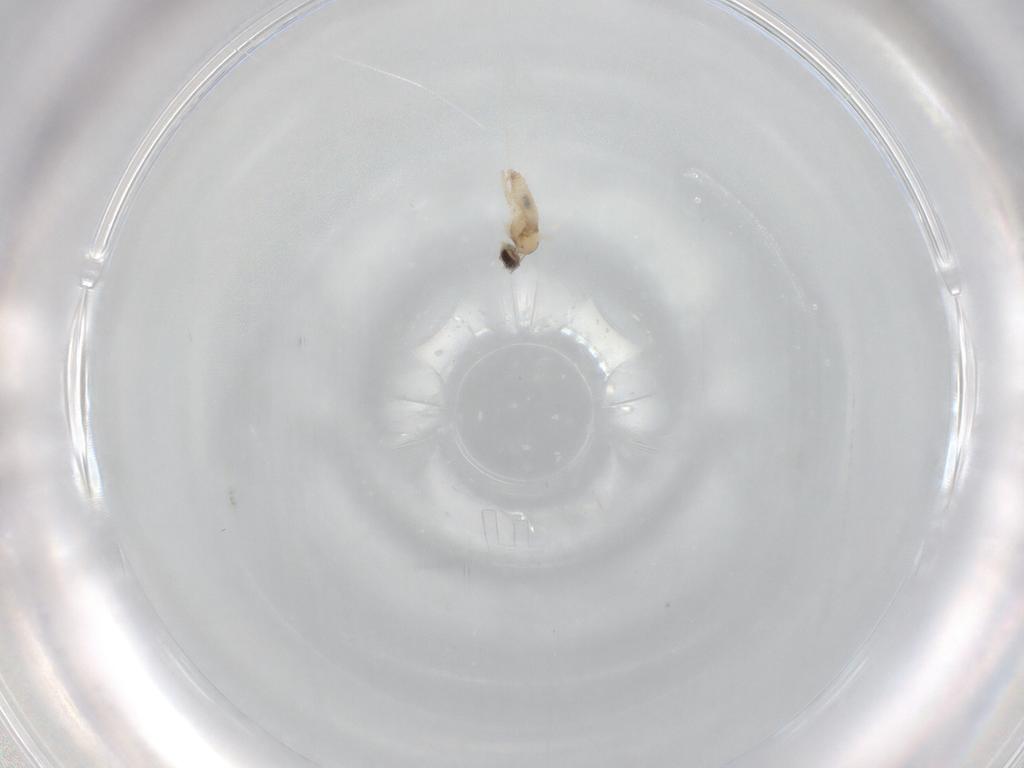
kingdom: Animalia
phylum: Arthropoda
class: Insecta
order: Diptera
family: Cecidomyiidae
